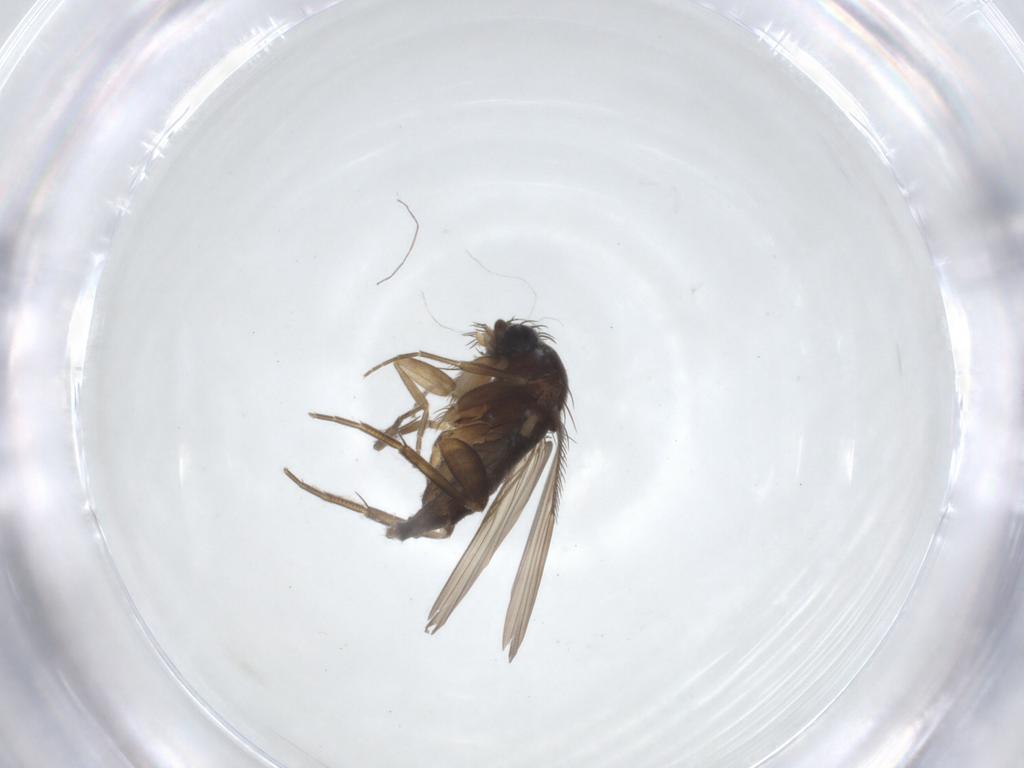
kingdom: Animalia
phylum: Arthropoda
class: Insecta
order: Diptera
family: Phoridae
